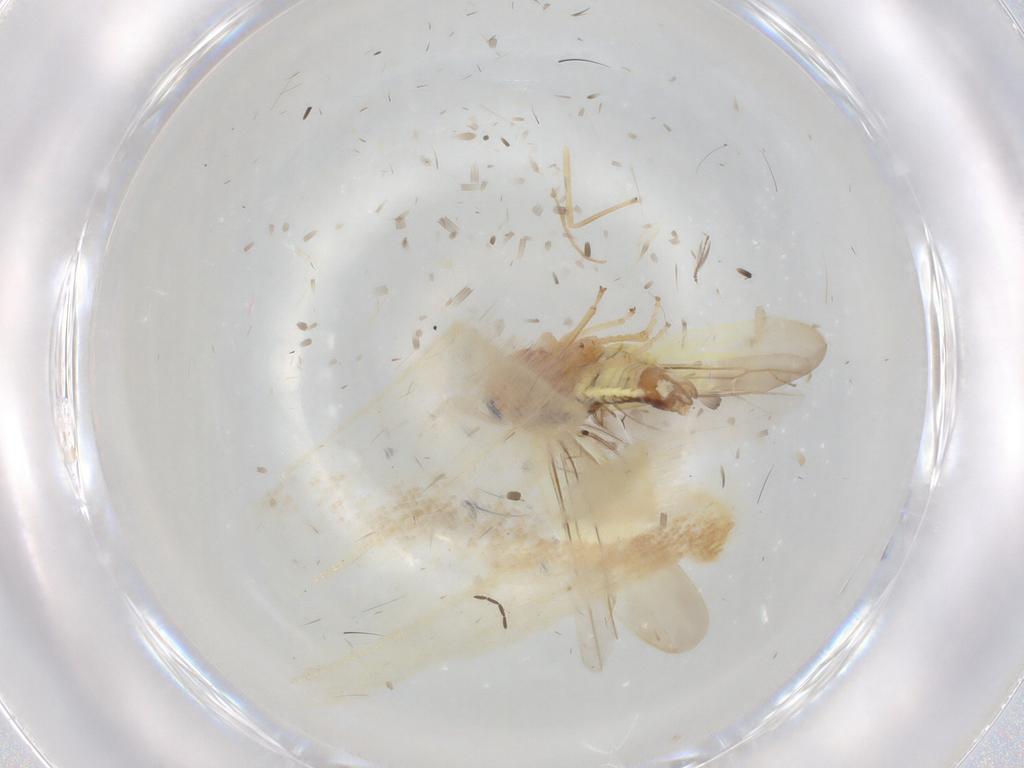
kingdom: Animalia
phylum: Arthropoda
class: Insecta
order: Hemiptera
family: Cicadellidae
